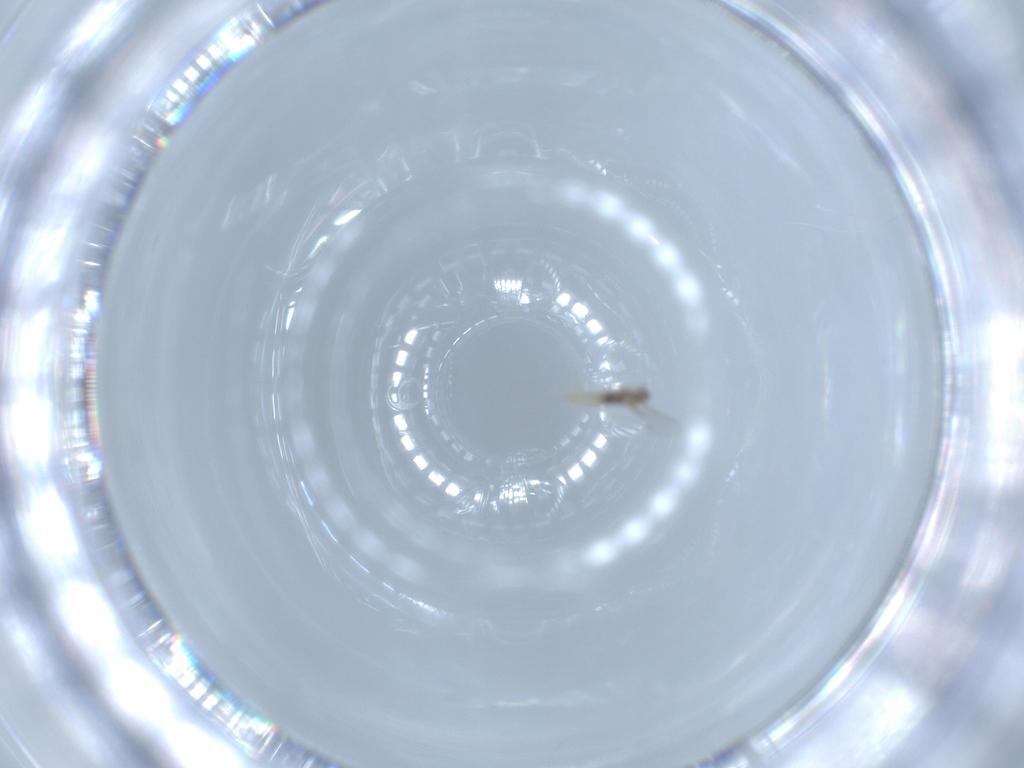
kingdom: Animalia
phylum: Arthropoda
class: Insecta
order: Diptera
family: Cecidomyiidae
